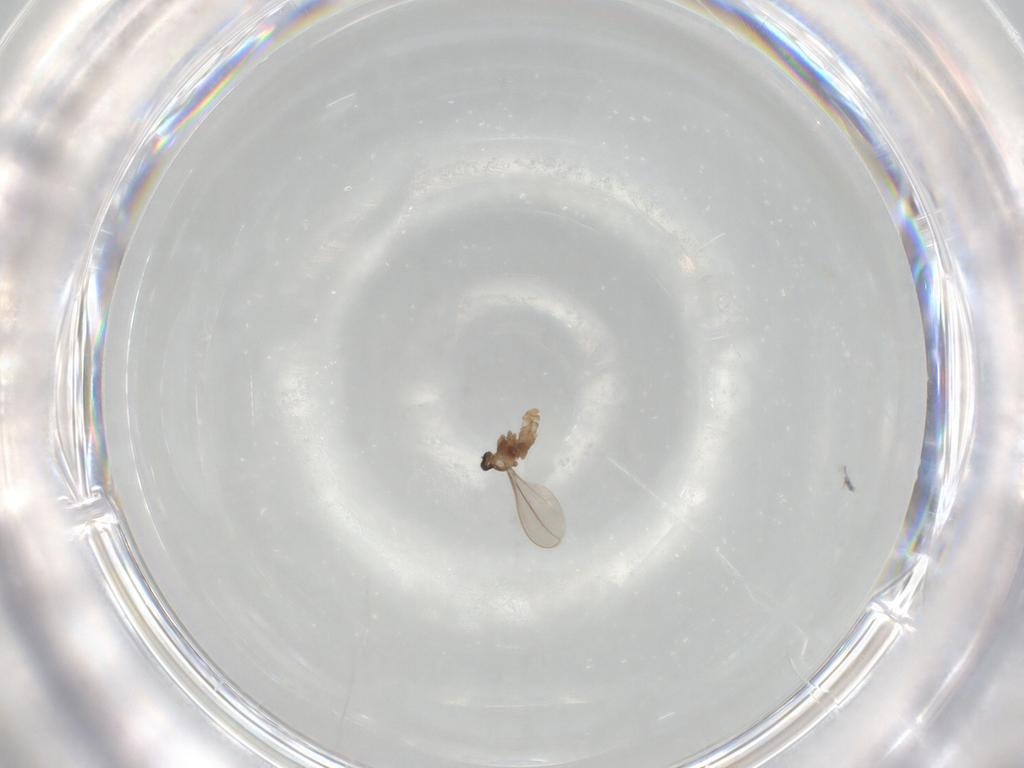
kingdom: Animalia
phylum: Arthropoda
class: Insecta
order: Diptera
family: Cecidomyiidae
